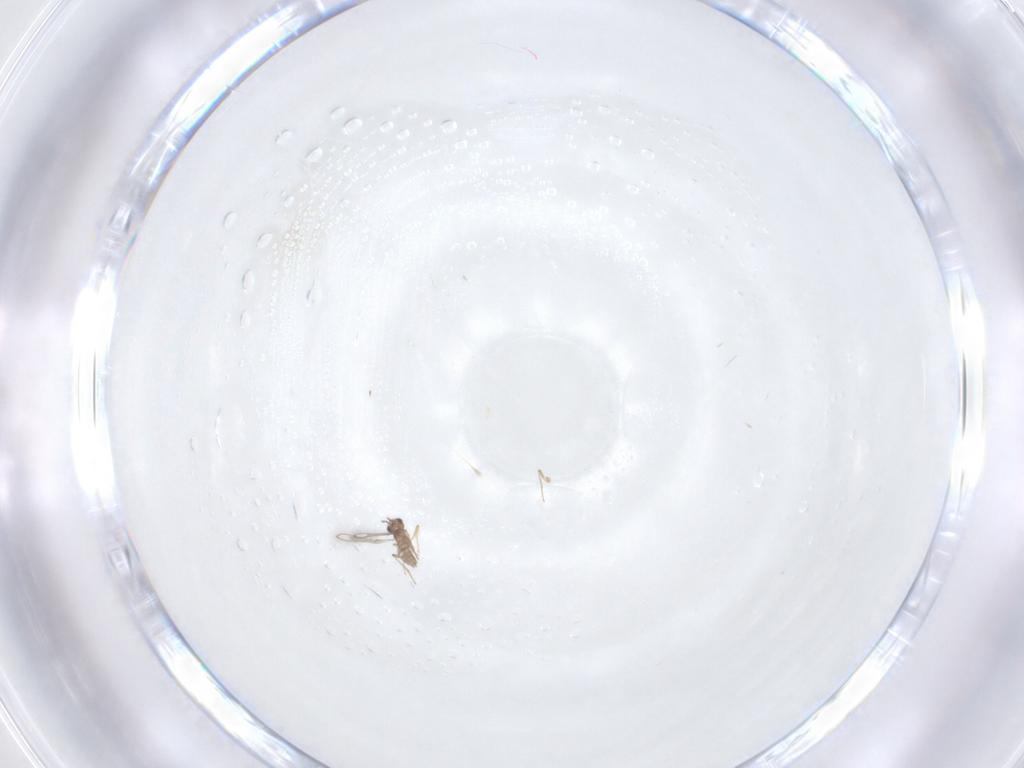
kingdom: Animalia
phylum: Arthropoda
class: Insecta
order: Hymenoptera
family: Mymaridae
